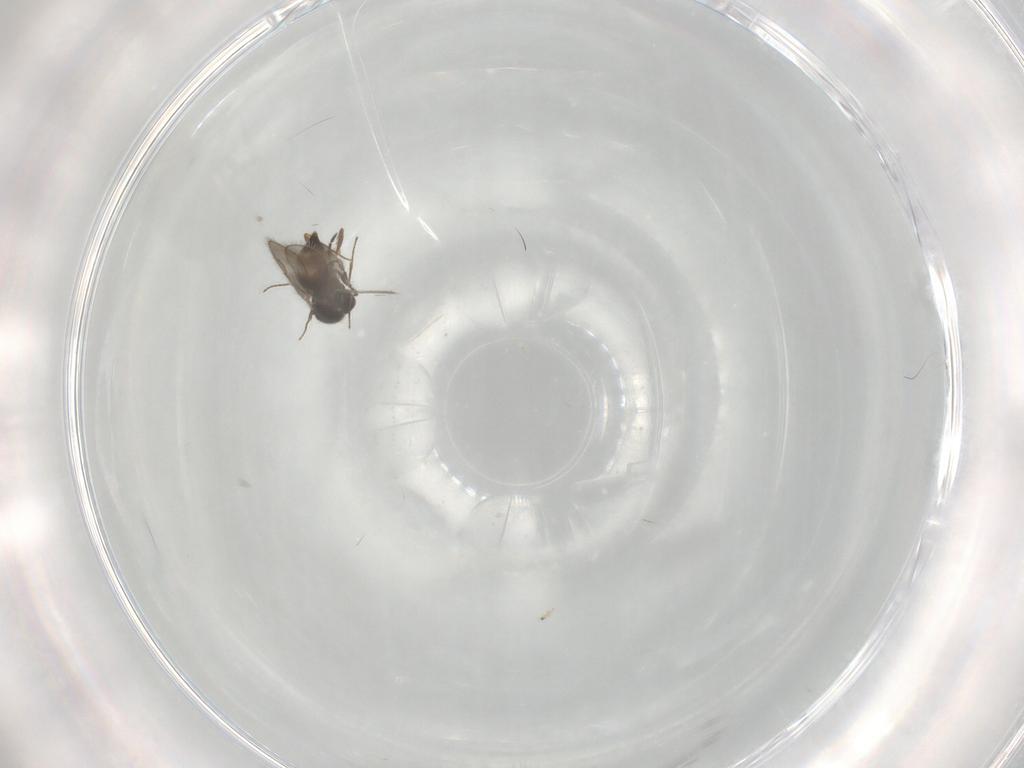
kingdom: Animalia
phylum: Arthropoda
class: Insecta
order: Hymenoptera
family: Ceraphronidae
